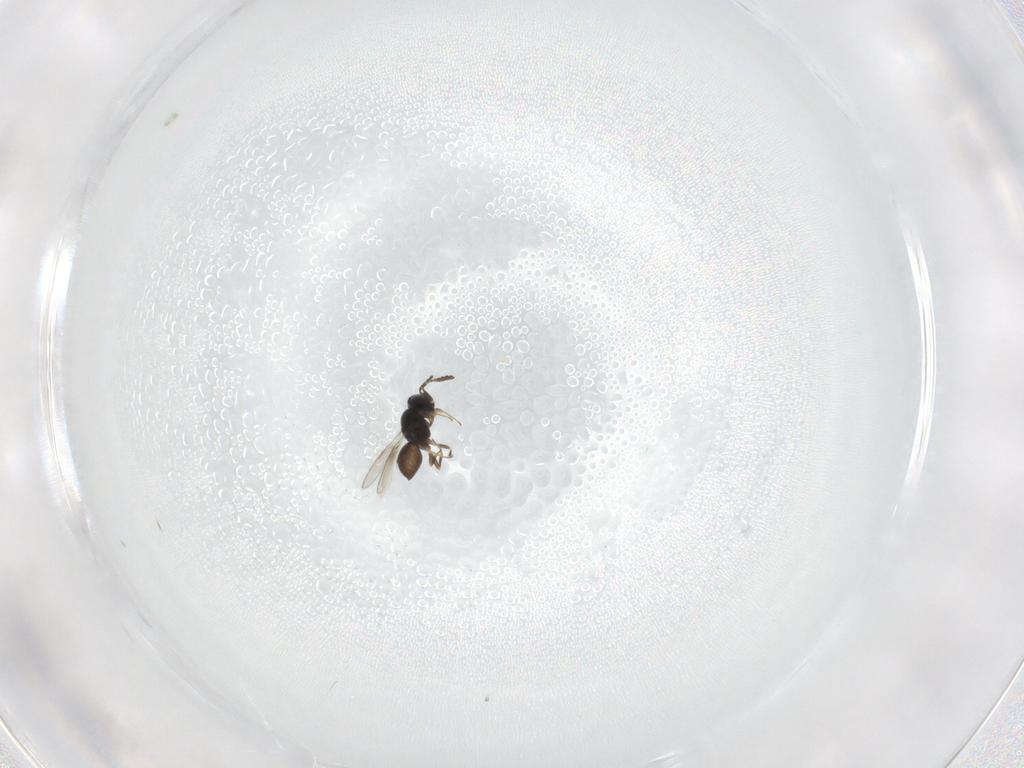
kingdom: Animalia
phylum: Arthropoda
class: Insecta
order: Hymenoptera
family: Scelionidae
